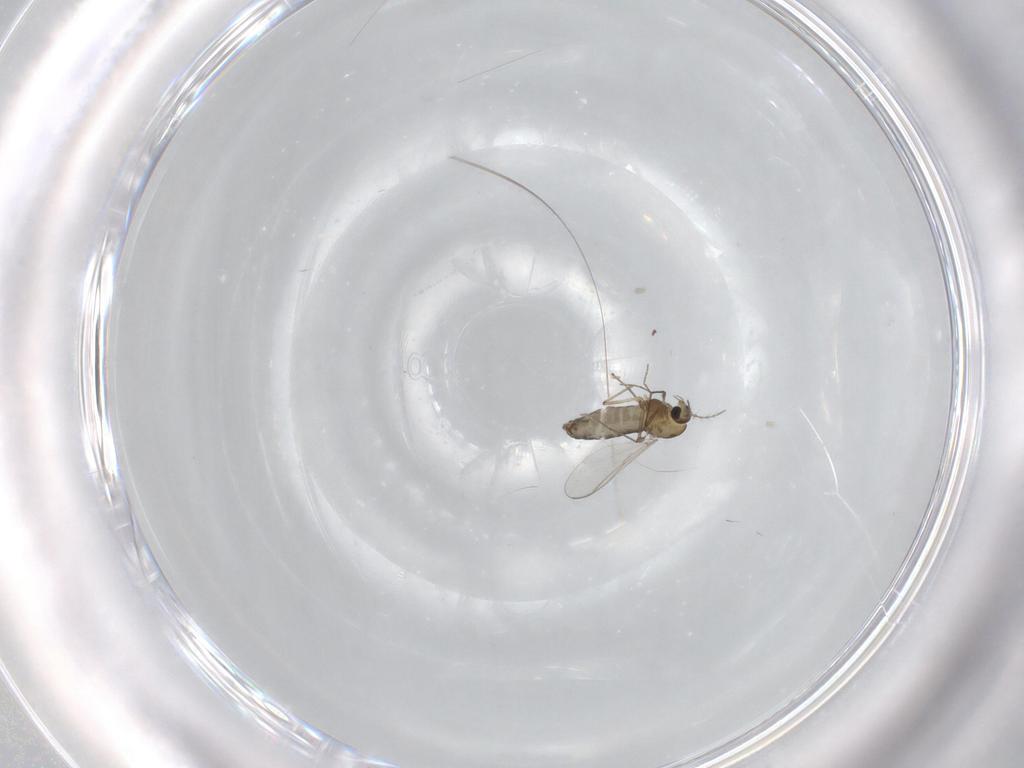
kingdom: Animalia
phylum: Arthropoda
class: Insecta
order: Diptera
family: Chironomidae
